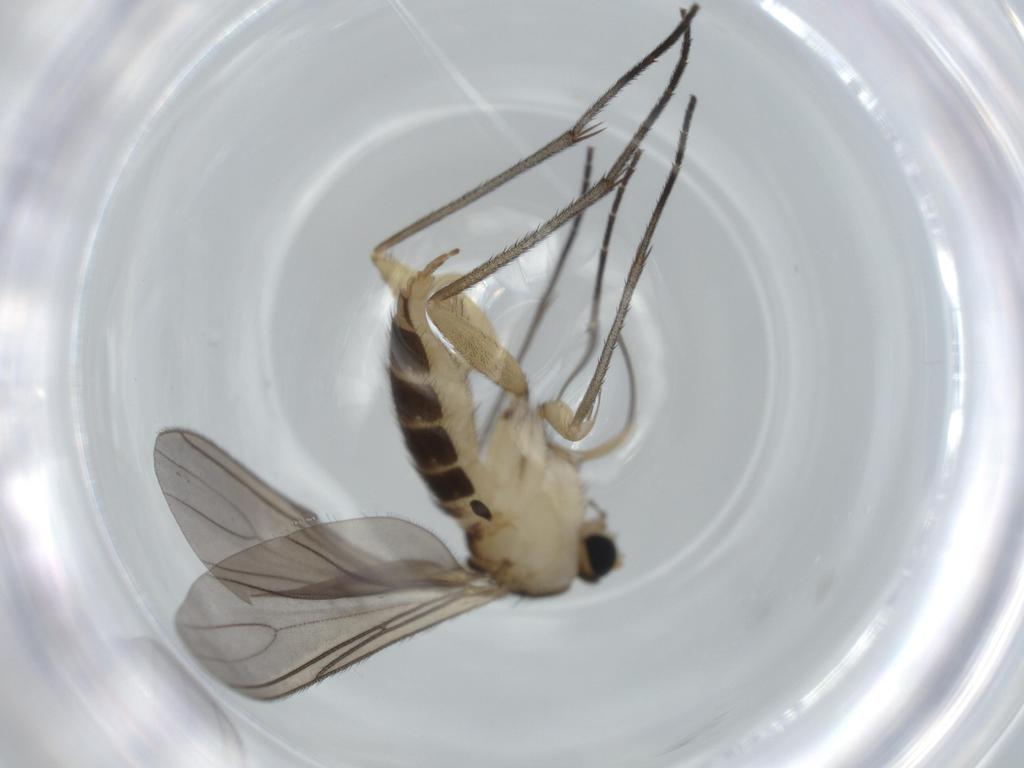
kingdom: Animalia
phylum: Arthropoda
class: Insecta
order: Diptera
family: Sciaridae
